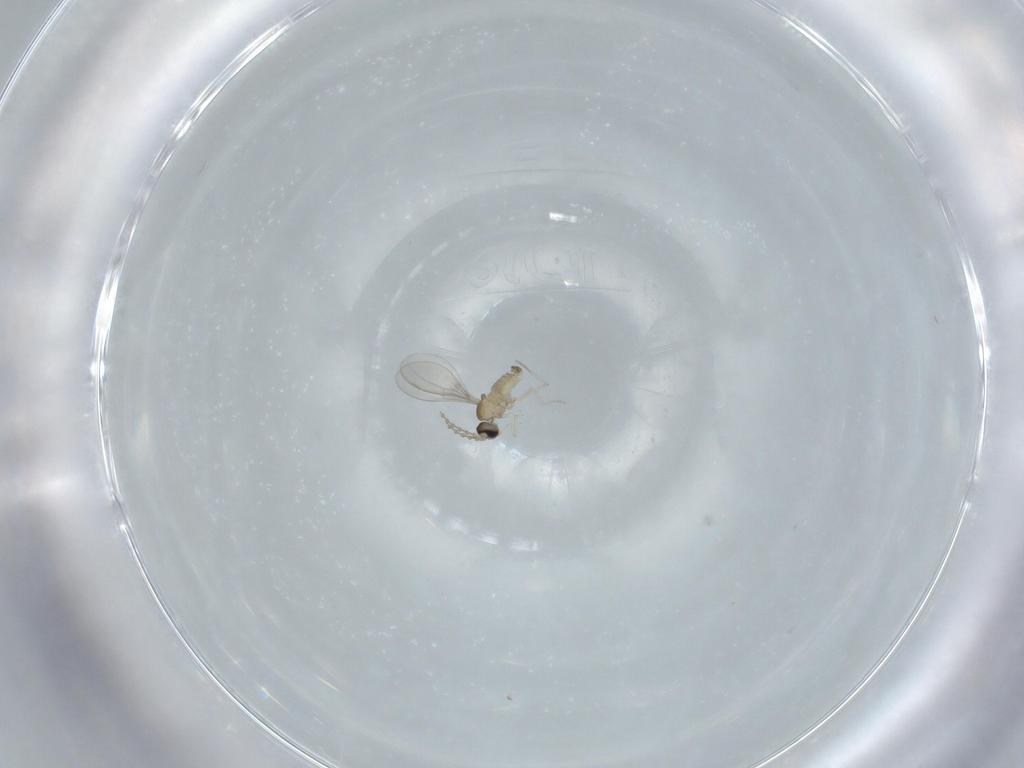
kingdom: Animalia
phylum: Arthropoda
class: Insecta
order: Diptera
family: Cecidomyiidae
